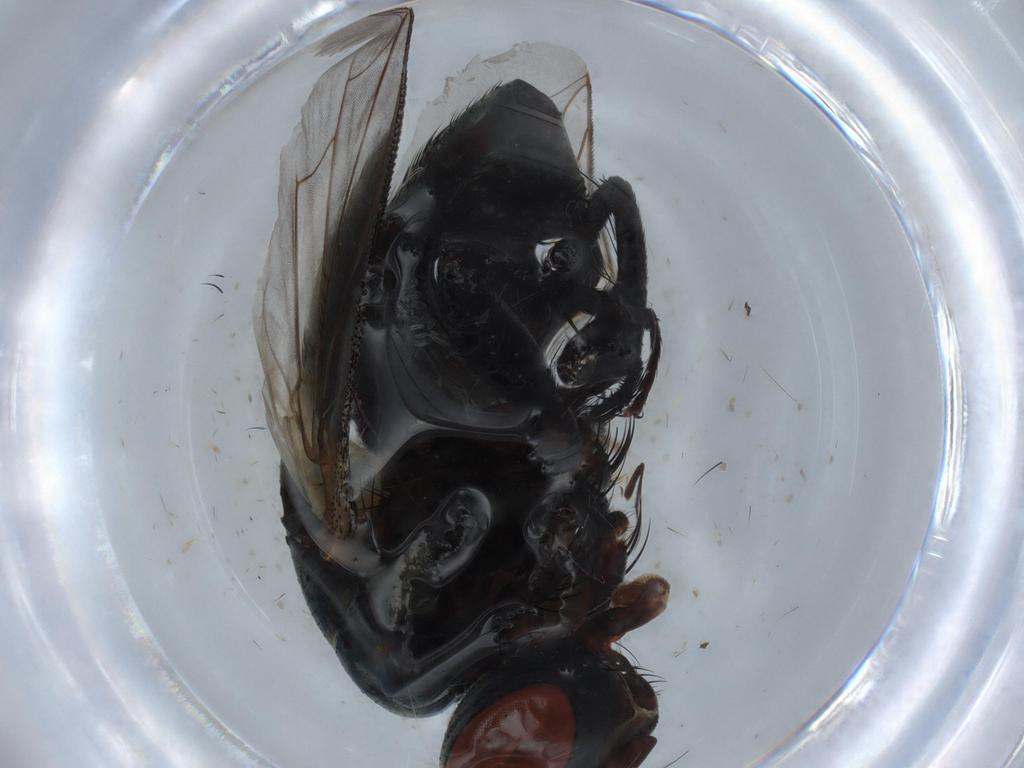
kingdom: Animalia
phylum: Arthropoda
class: Insecta
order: Diptera
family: Sarcophagidae
